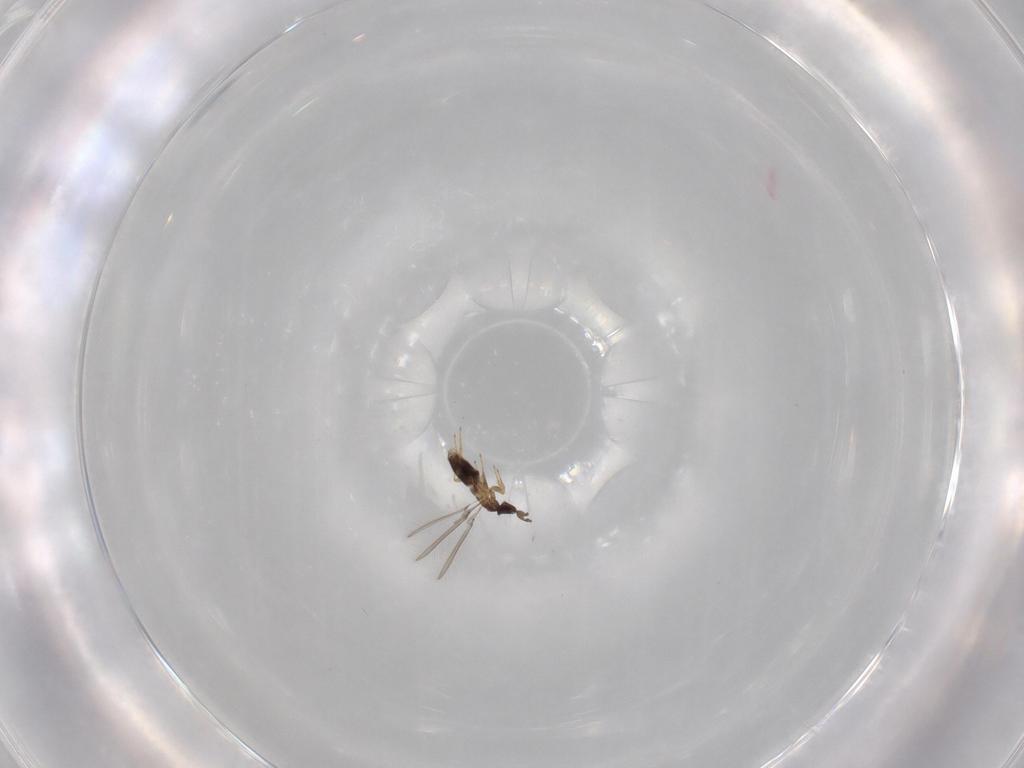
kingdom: Animalia
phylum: Arthropoda
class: Insecta
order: Hymenoptera
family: Mymaridae
